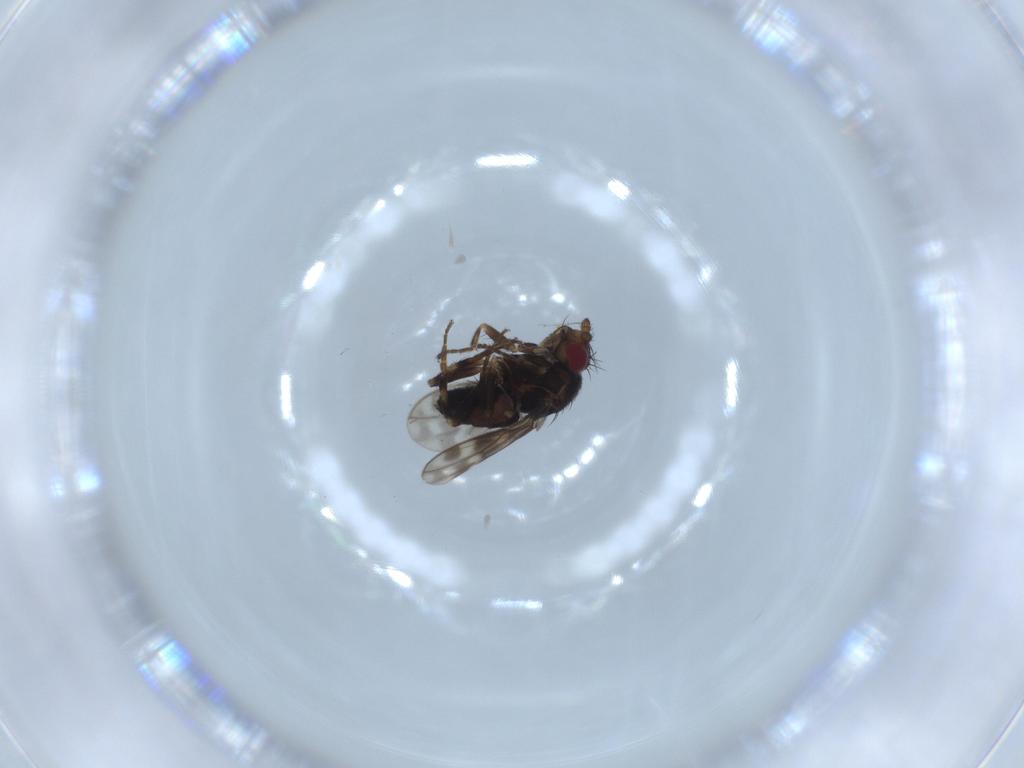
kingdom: Animalia
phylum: Arthropoda
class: Insecta
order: Diptera
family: Sphaeroceridae
